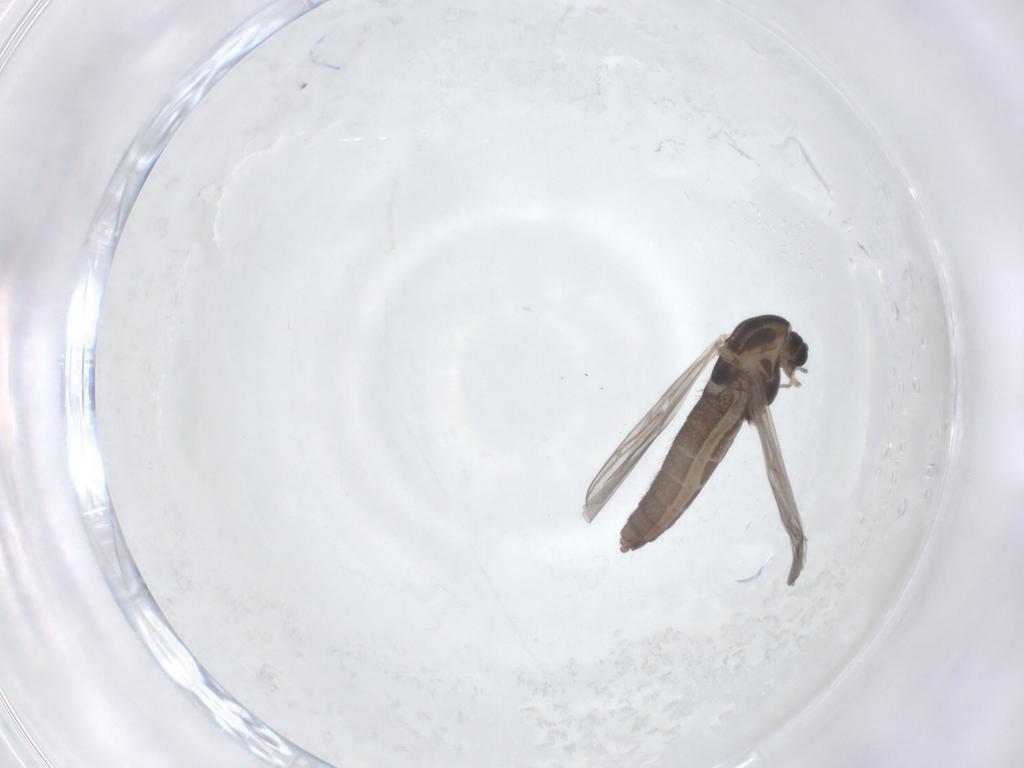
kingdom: Animalia
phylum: Arthropoda
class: Insecta
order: Diptera
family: Chironomidae
